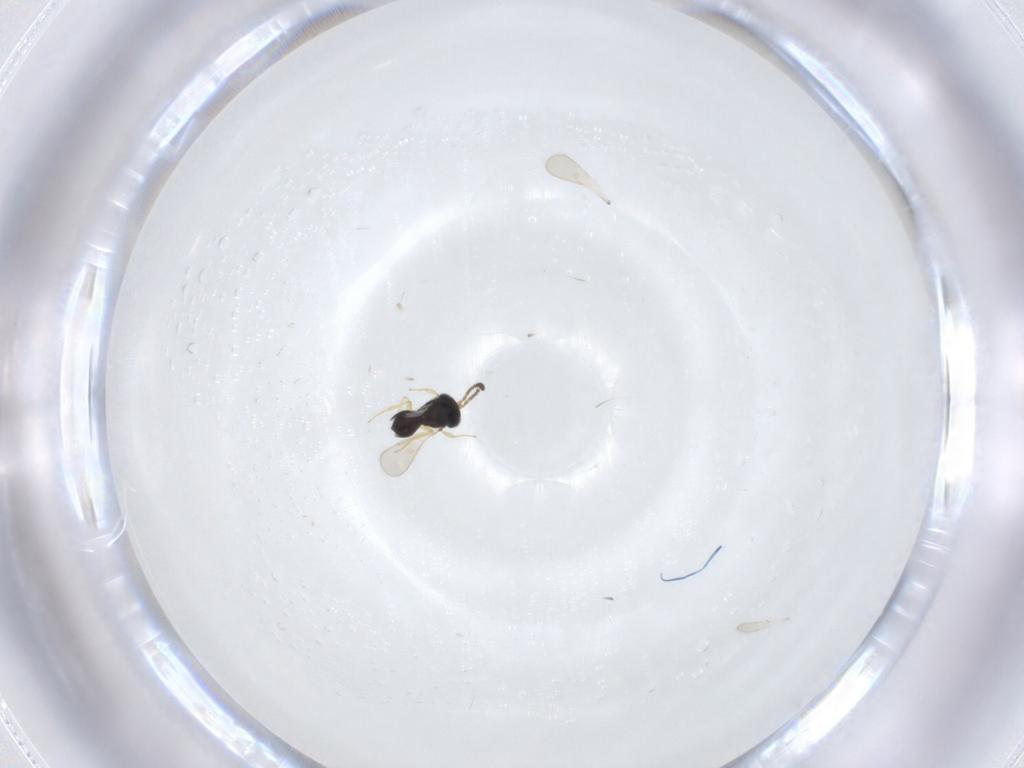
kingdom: Animalia
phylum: Arthropoda
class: Insecta
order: Hymenoptera
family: Scelionidae
